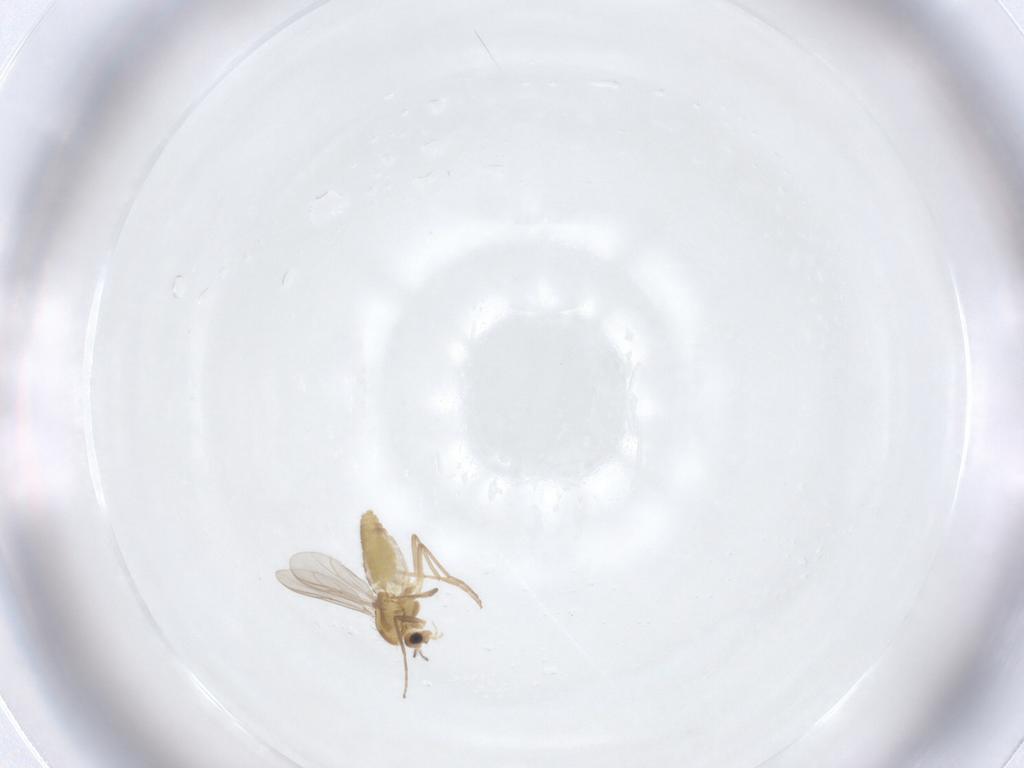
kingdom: Animalia
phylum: Arthropoda
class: Insecta
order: Diptera
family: Chironomidae
